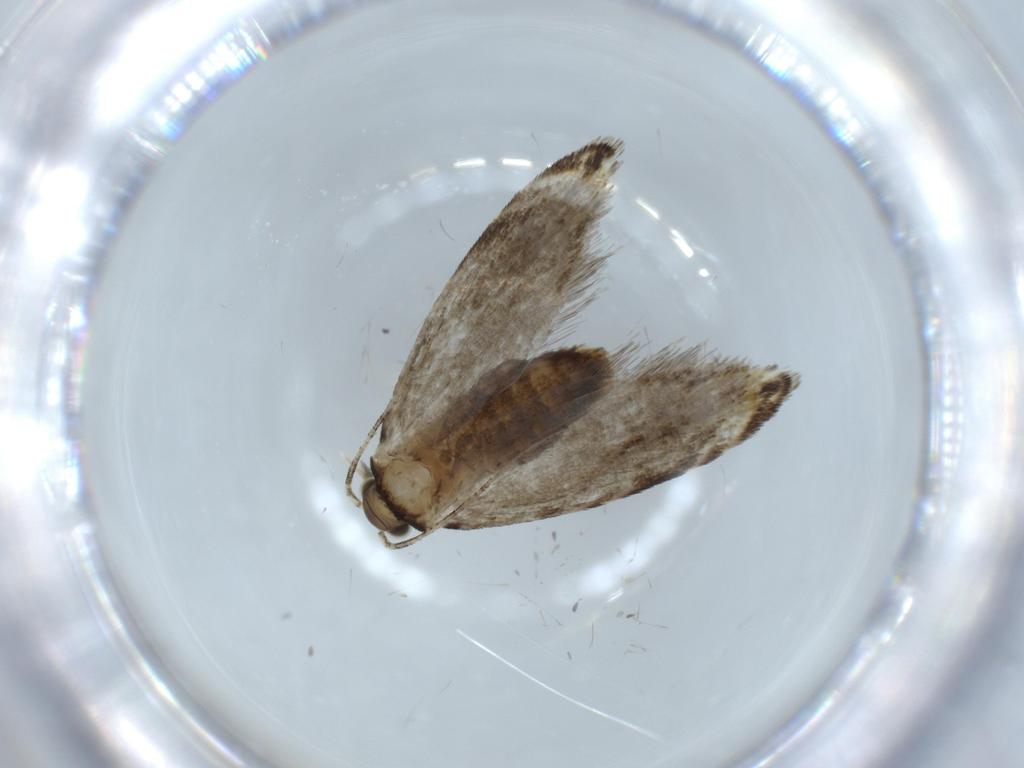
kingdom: Animalia
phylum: Arthropoda
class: Insecta
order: Lepidoptera
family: Tineidae
